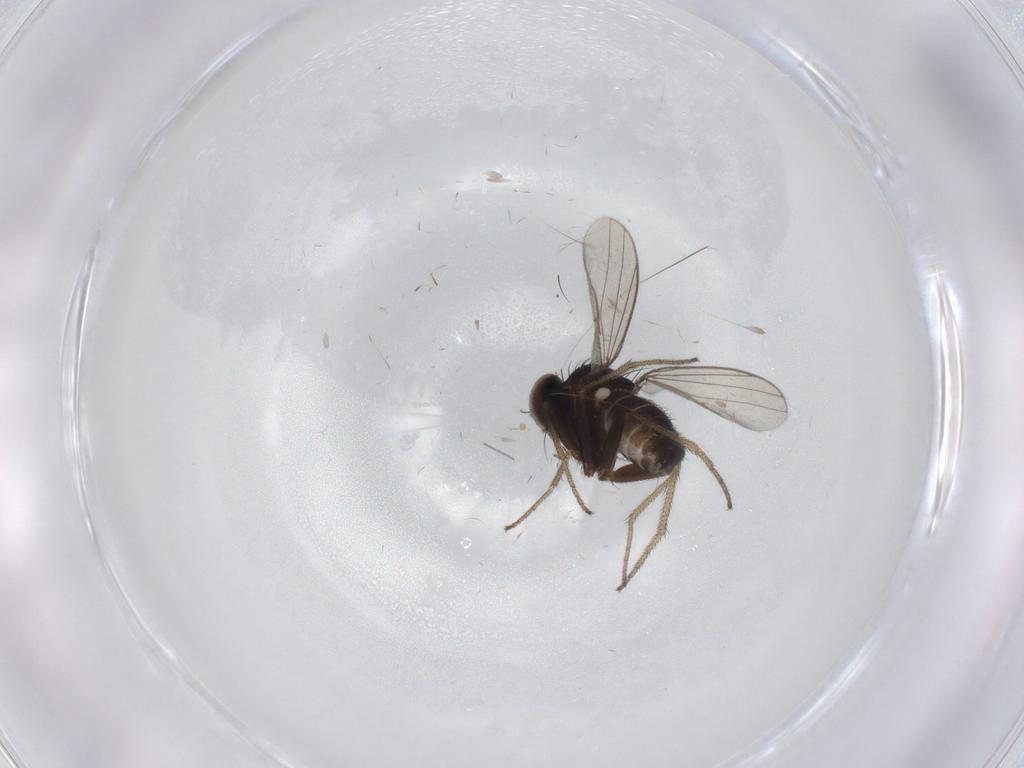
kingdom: Animalia
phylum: Arthropoda
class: Insecta
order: Diptera
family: Cecidomyiidae
